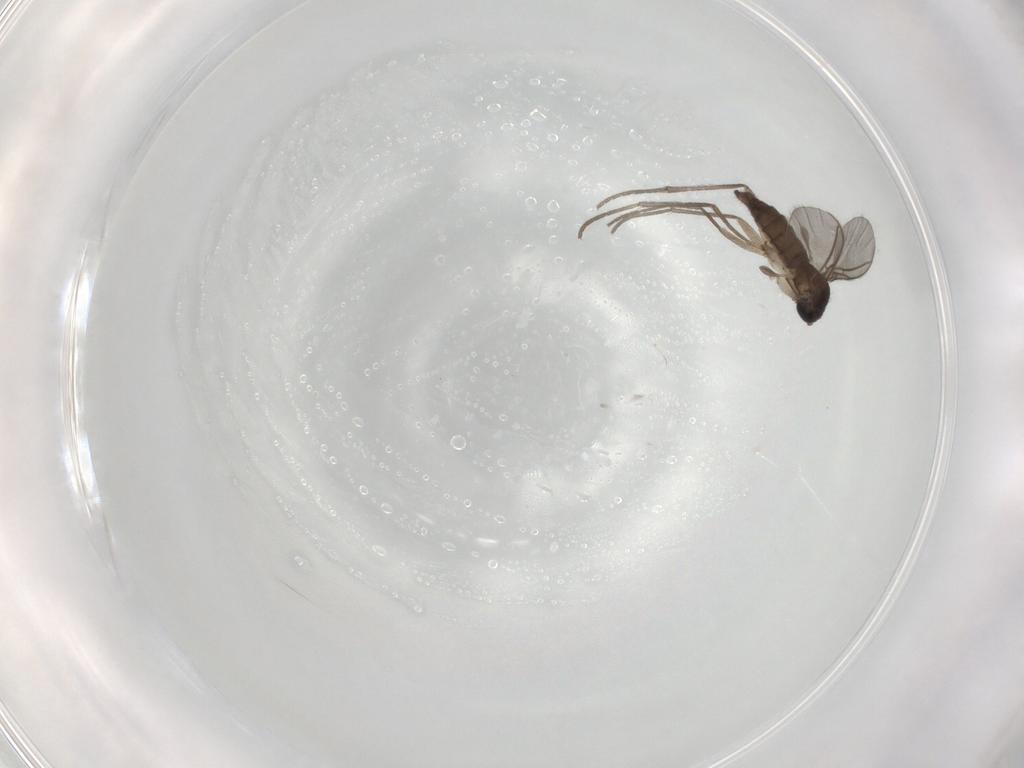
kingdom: Animalia
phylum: Arthropoda
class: Insecta
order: Diptera
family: Sciaridae
